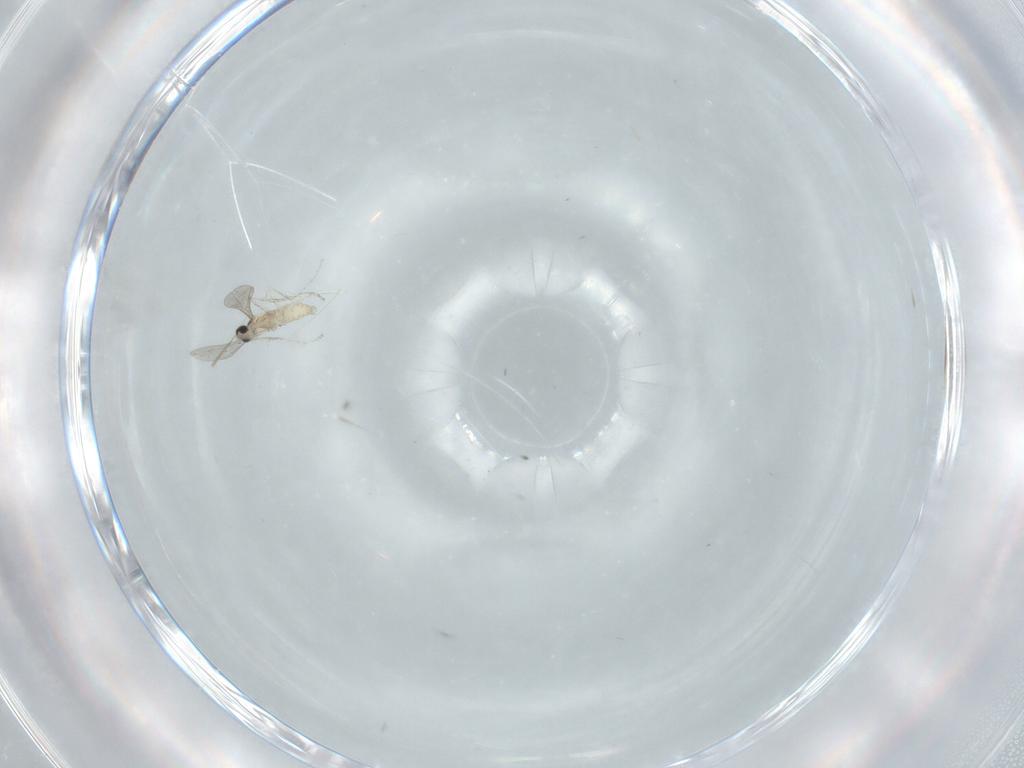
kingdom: Animalia
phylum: Arthropoda
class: Insecta
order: Diptera
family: Cecidomyiidae
